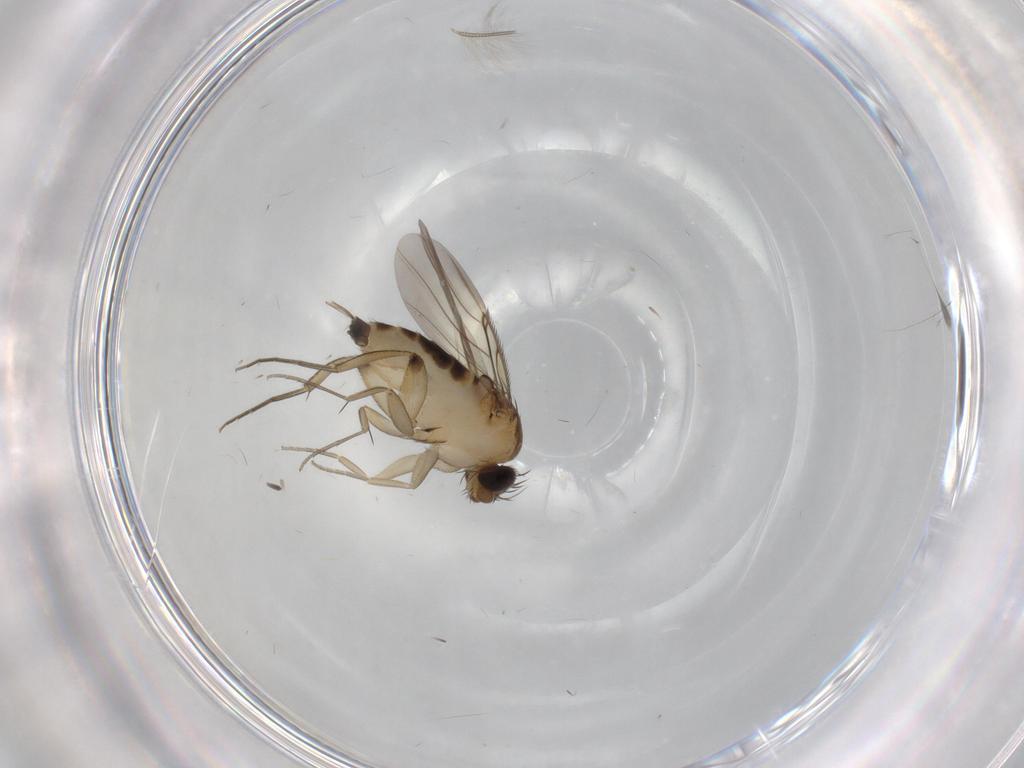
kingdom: Animalia
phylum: Arthropoda
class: Insecta
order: Diptera
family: Phoridae
